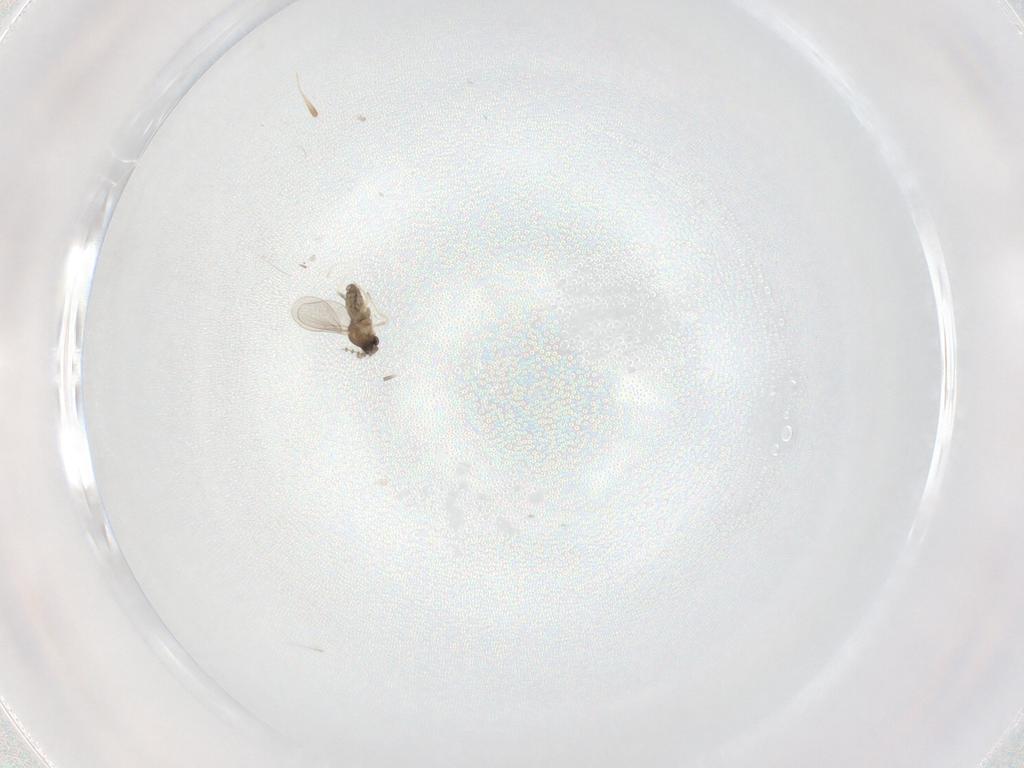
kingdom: Animalia
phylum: Arthropoda
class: Insecta
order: Diptera
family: Cecidomyiidae
